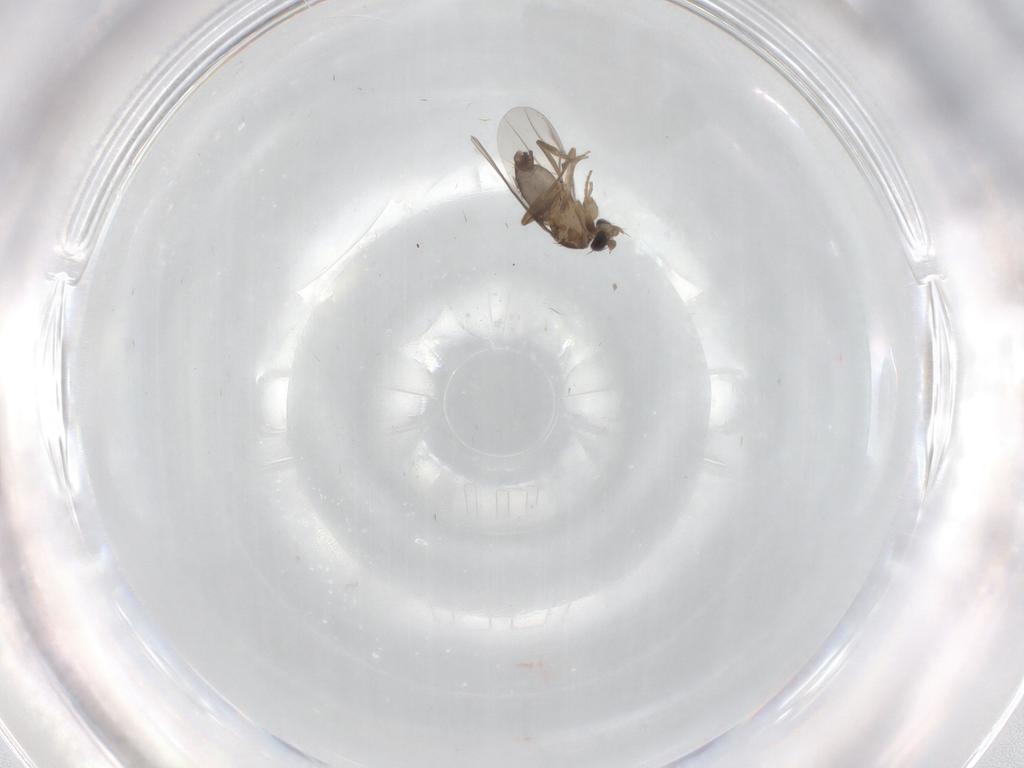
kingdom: Animalia
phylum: Arthropoda
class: Insecta
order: Diptera
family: Phoridae
